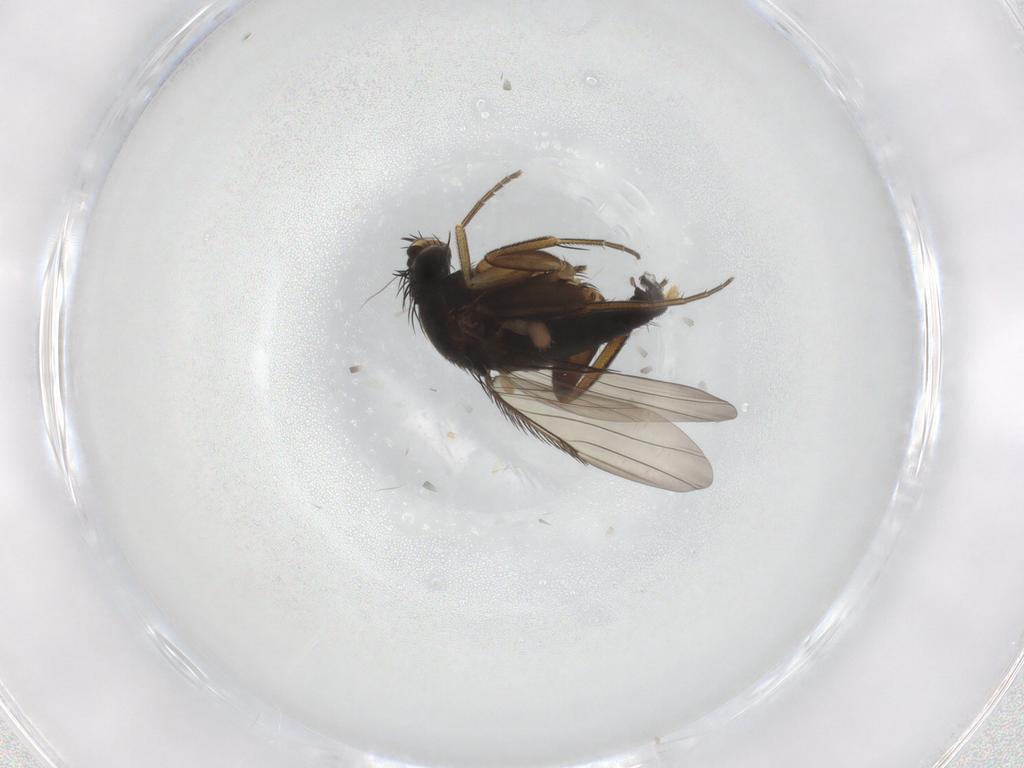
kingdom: Animalia
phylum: Arthropoda
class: Insecta
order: Diptera
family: Phoridae
